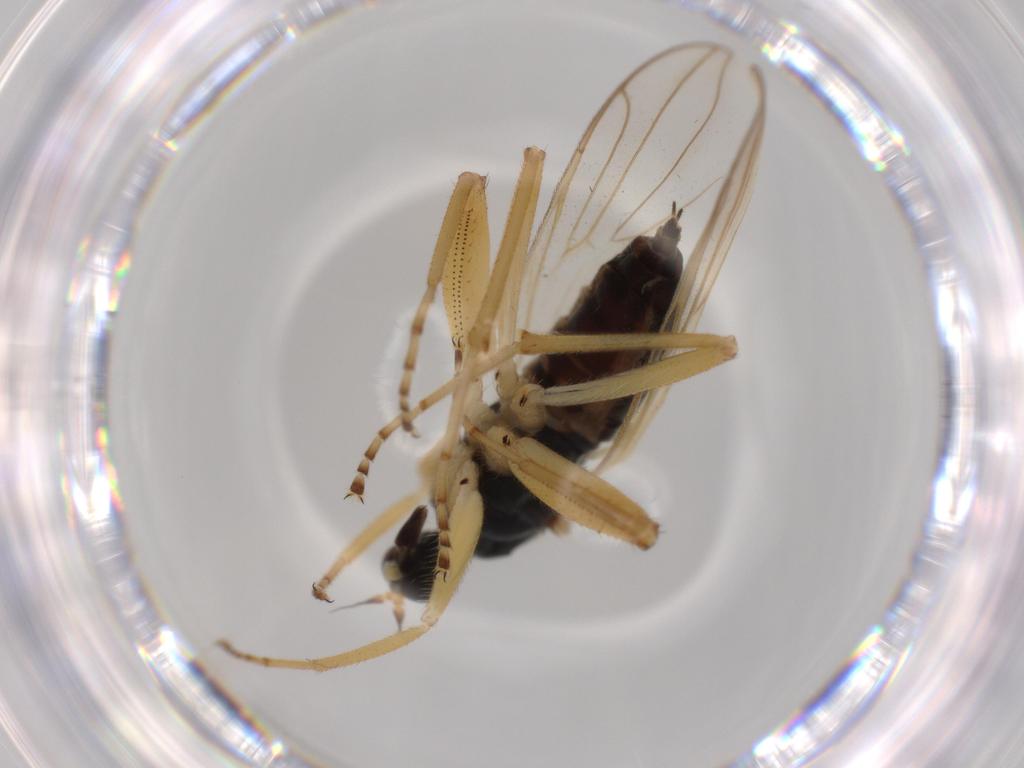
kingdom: Animalia
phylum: Arthropoda
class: Insecta
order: Diptera
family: Hybotidae
